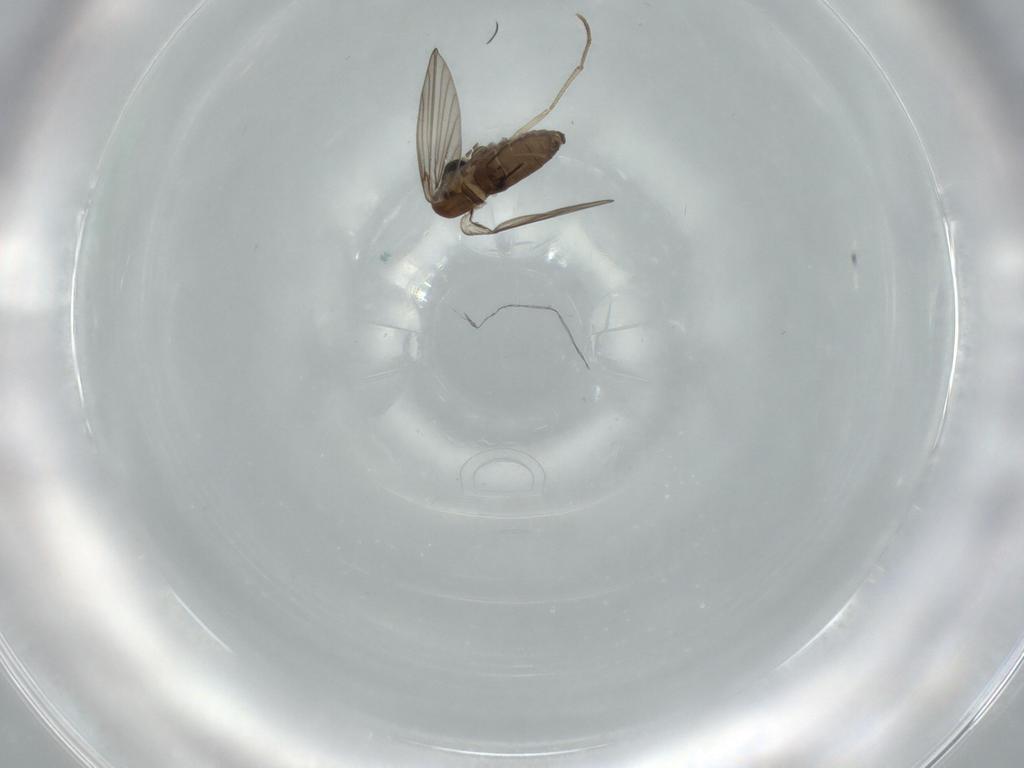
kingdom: Animalia
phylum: Arthropoda
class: Insecta
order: Diptera
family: Psychodidae
